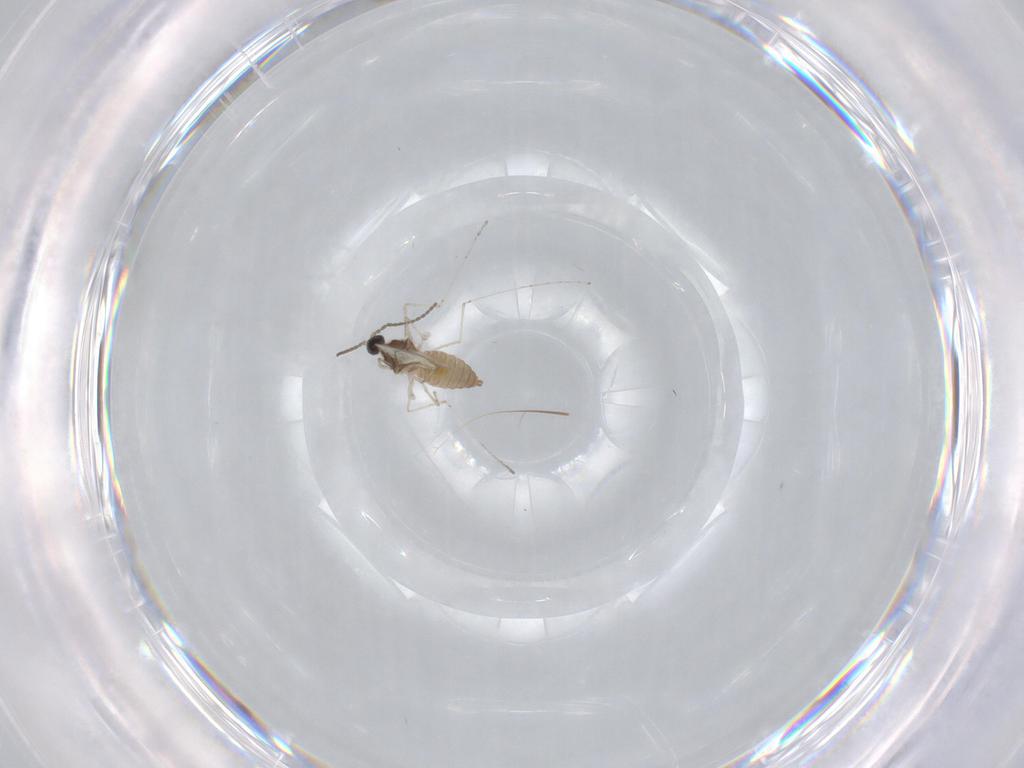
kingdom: Animalia
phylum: Arthropoda
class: Insecta
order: Diptera
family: Cecidomyiidae
